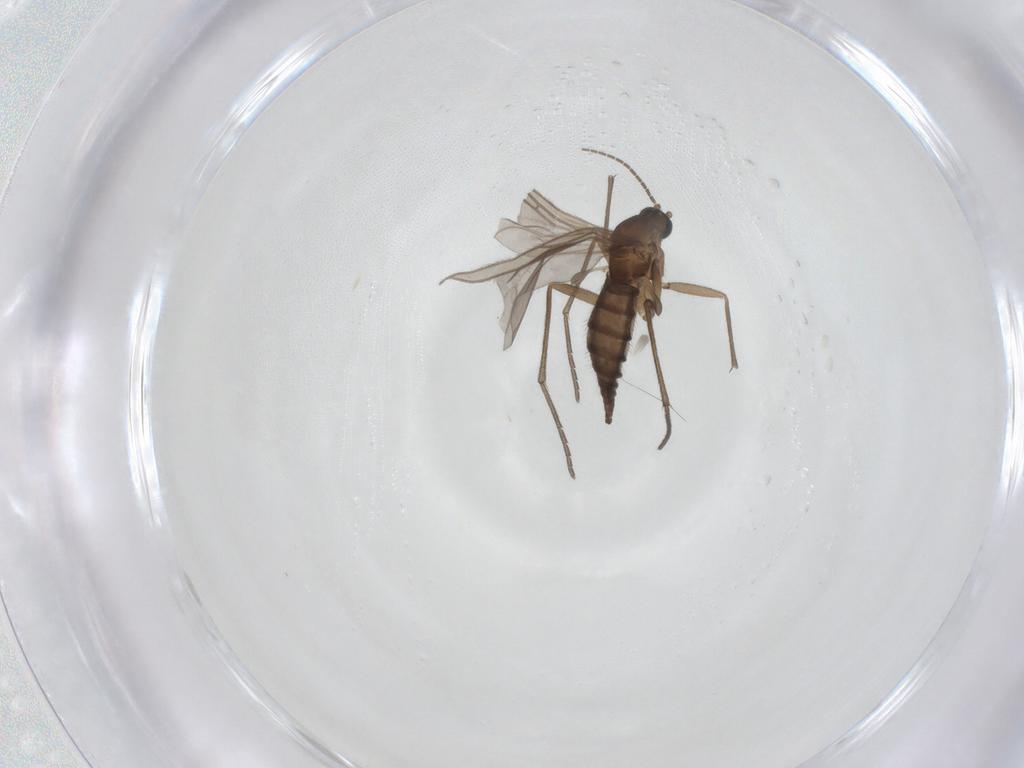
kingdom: Animalia
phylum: Arthropoda
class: Insecta
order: Diptera
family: Sciaridae
